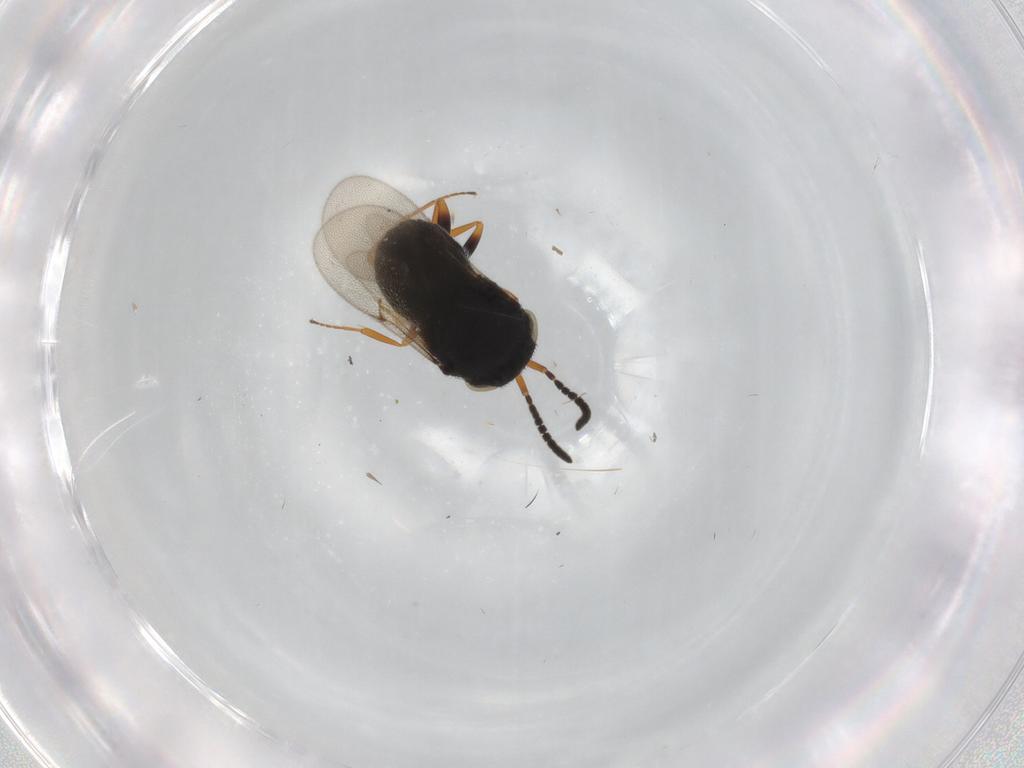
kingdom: Animalia
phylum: Arthropoda
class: Insecta
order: Hymenoptera
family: Scelionidae
